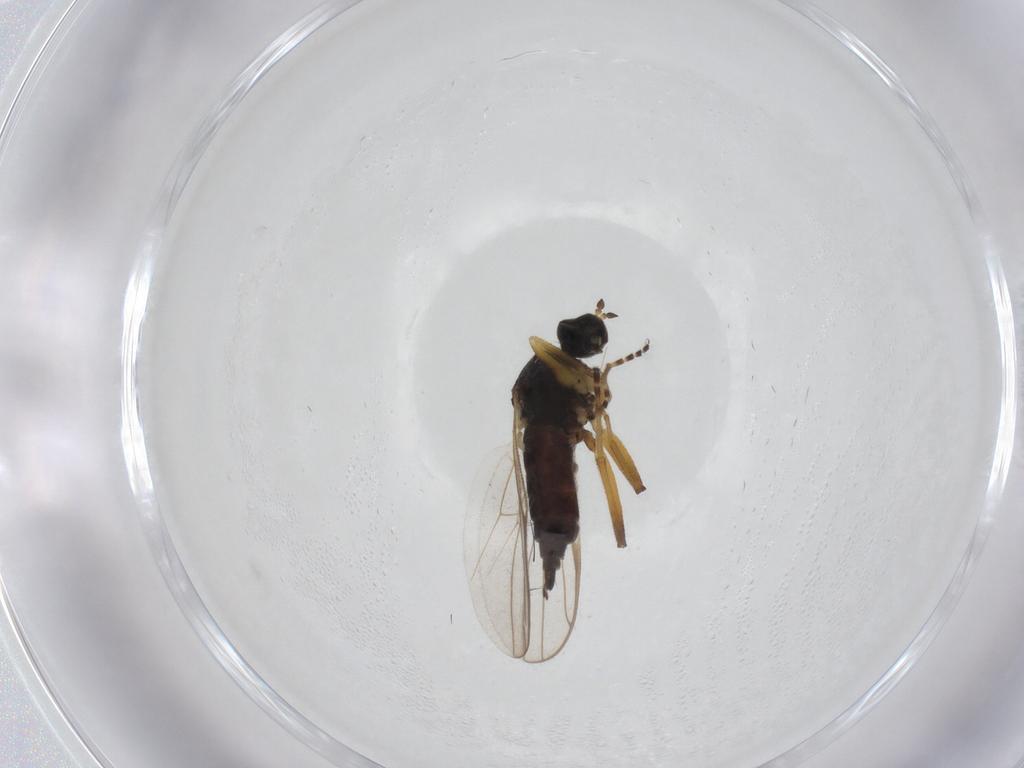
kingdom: Animalia
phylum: Arthropoda
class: Insecta
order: Diptera
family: Hybotidae
